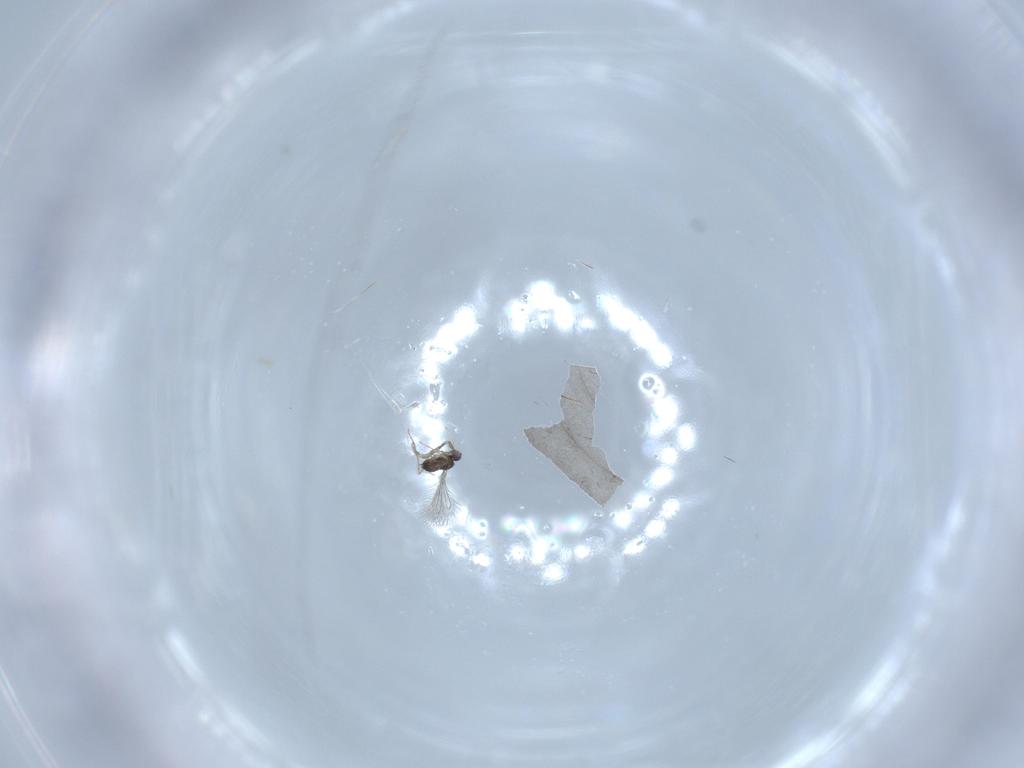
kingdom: Animalia
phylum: Arthropoda
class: Insecta
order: Hymenoptera
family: Mymaridae
